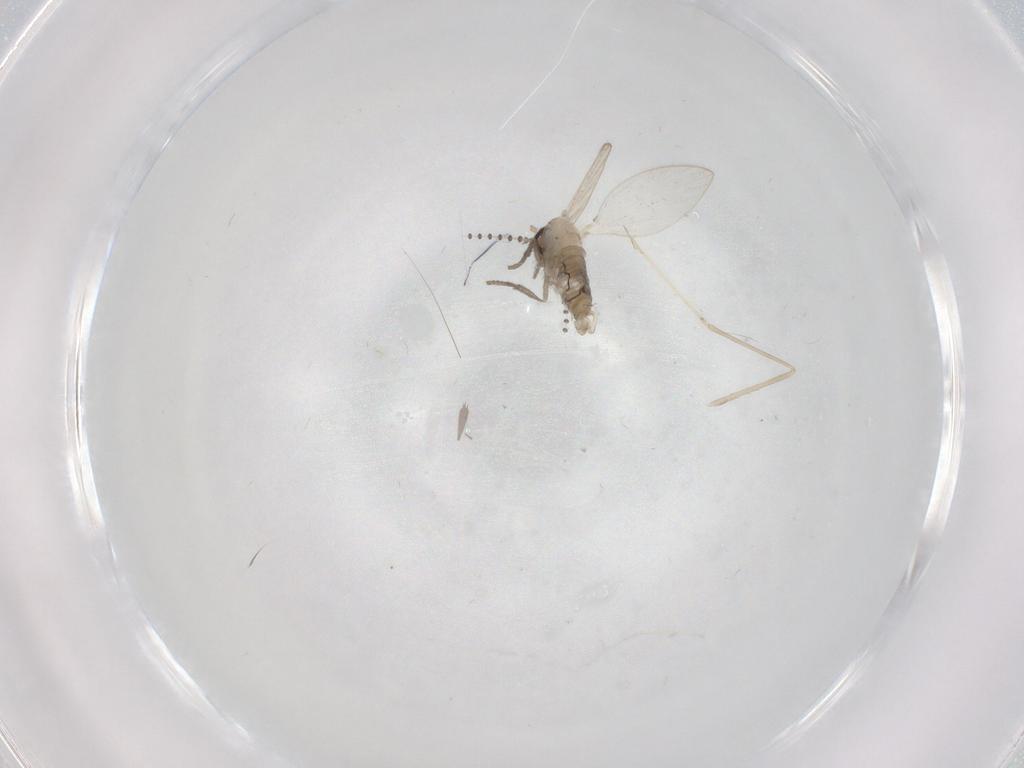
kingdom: Animalia
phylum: Arthropoda
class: Insecta
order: Diptera
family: Psychodidae
